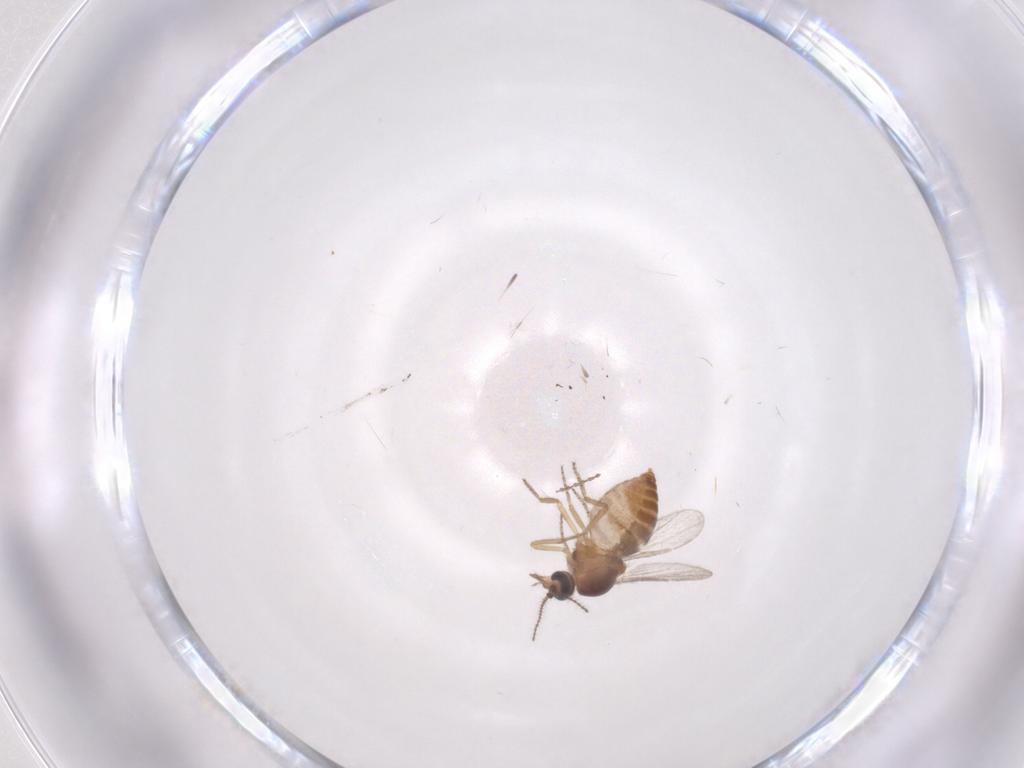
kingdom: Animalia
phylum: Arthropoda
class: Insecta
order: Diptera
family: Ceratopogonidae
